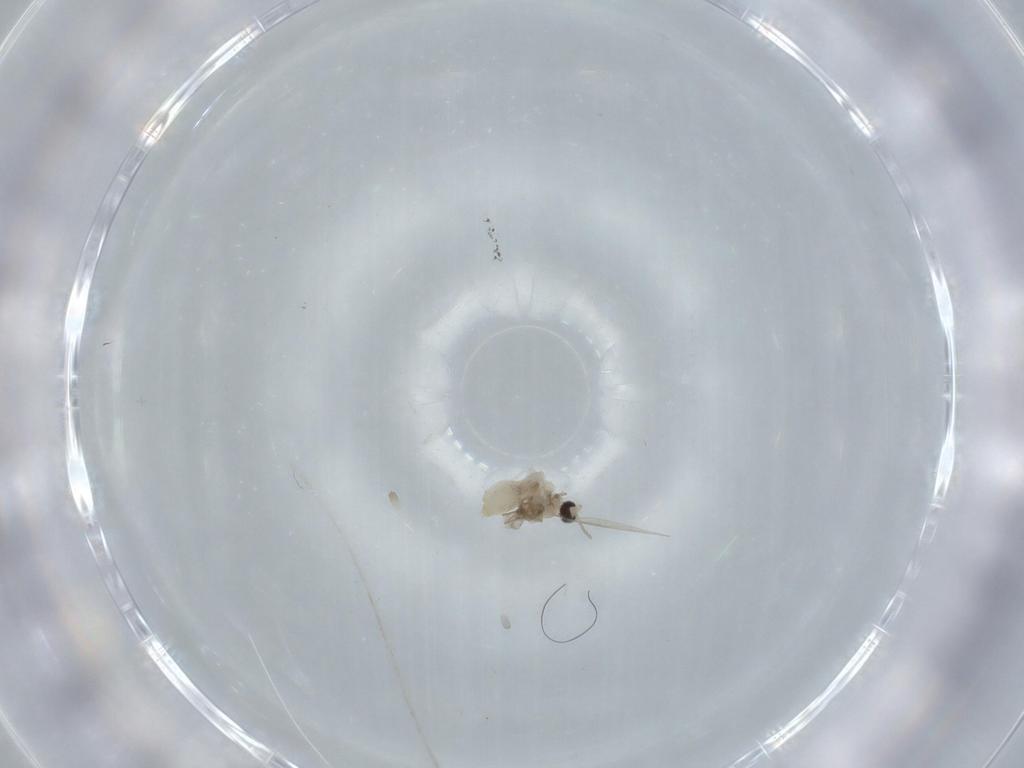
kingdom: Animalia
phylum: Arthropoda
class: Insecta
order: Diptera
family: Cecidomyiidae
